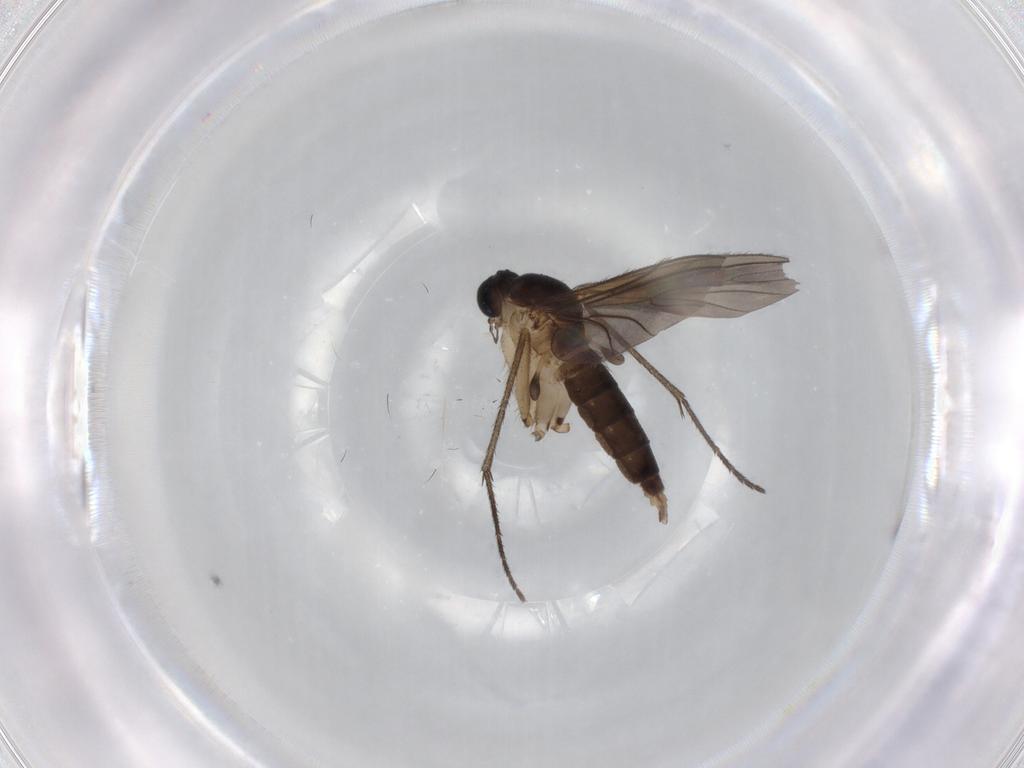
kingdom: Animalia
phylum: Arthropoda
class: Insecta
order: Diptera
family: Sciaridae
